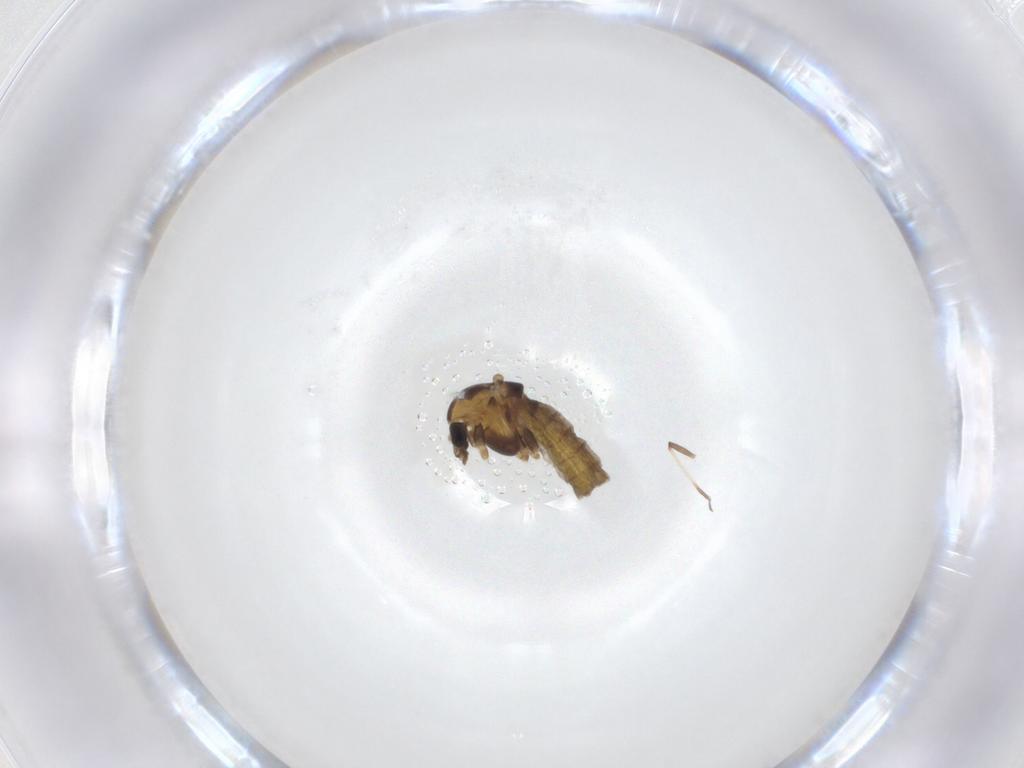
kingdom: Animalia
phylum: Arthropoda
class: Insecta
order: Diptera
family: Chironomidae
